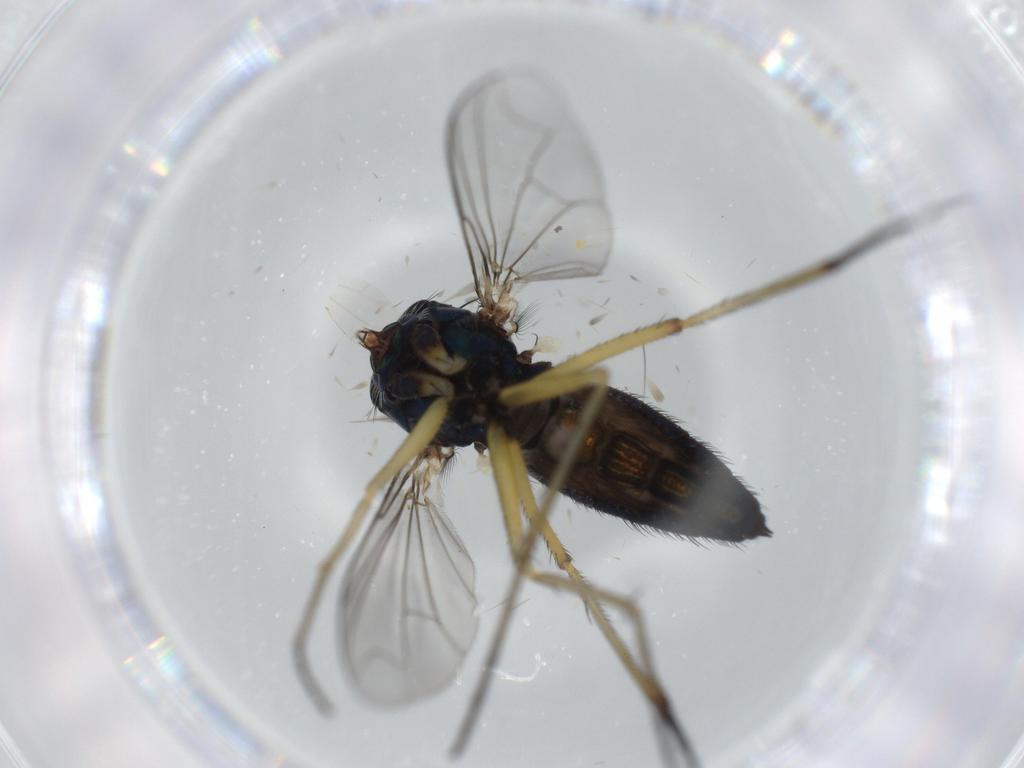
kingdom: Animalia
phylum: Arthropoda
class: Insecta
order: Diptera
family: Dolichopodidae
